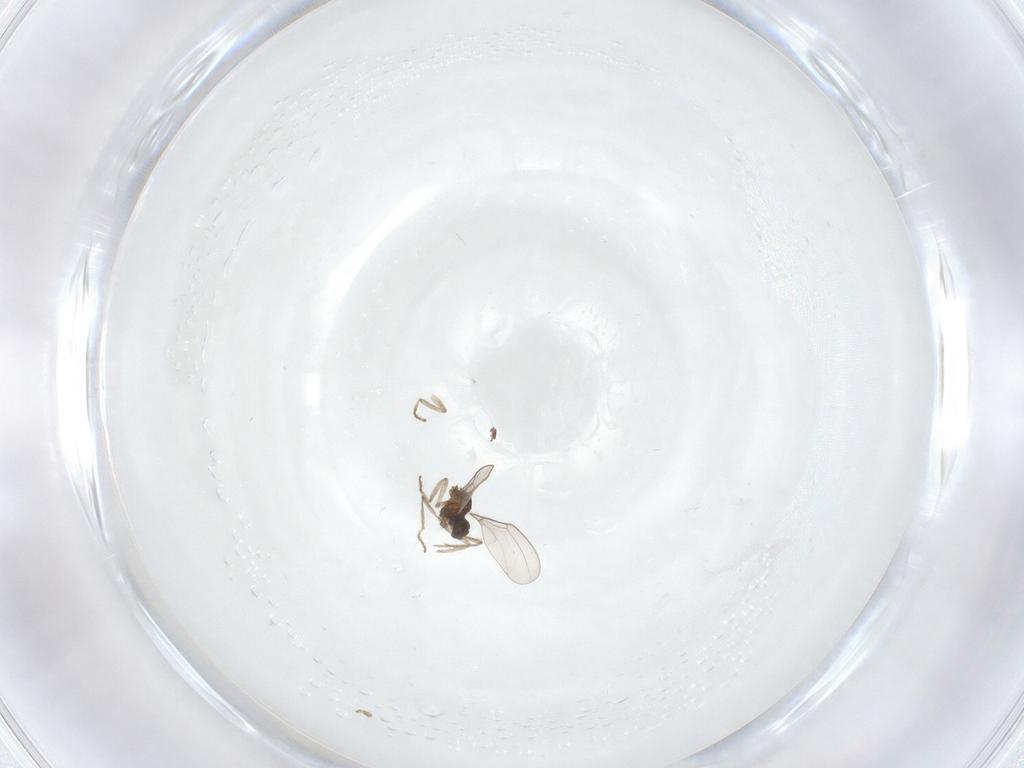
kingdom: Animalia
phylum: Arthropoda
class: Insecta
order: Diptera
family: Cecidomyiidae
